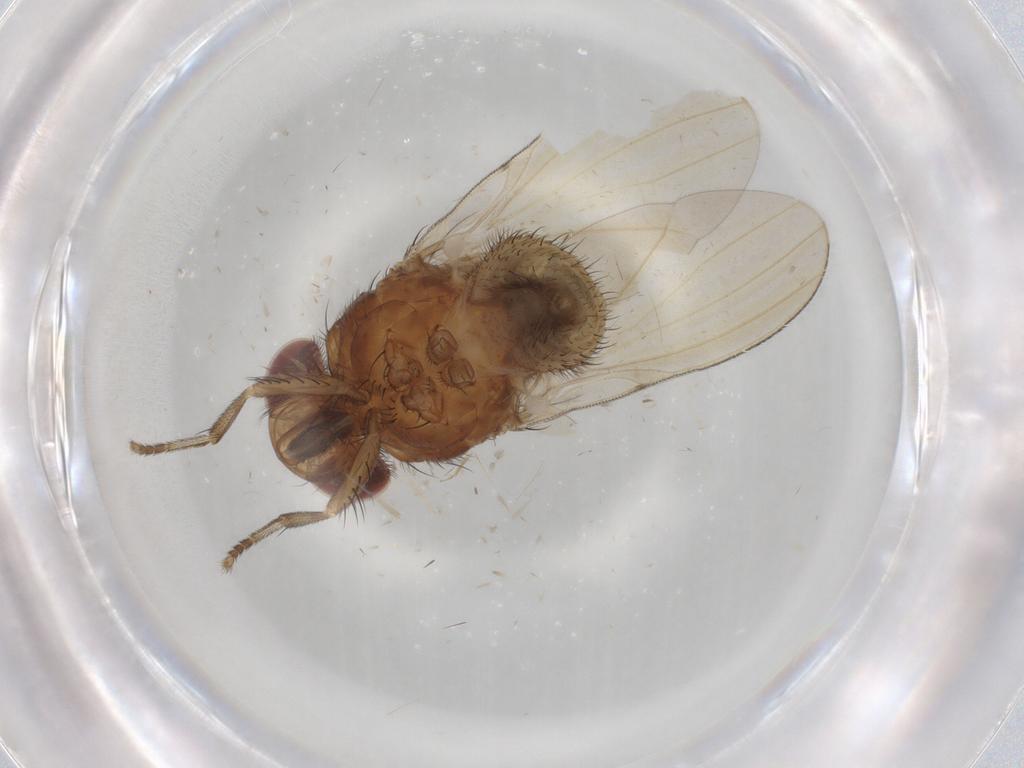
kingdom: Animalia
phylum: Arthropoda
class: Insecta
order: Diptera
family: Cecidomyiidae
